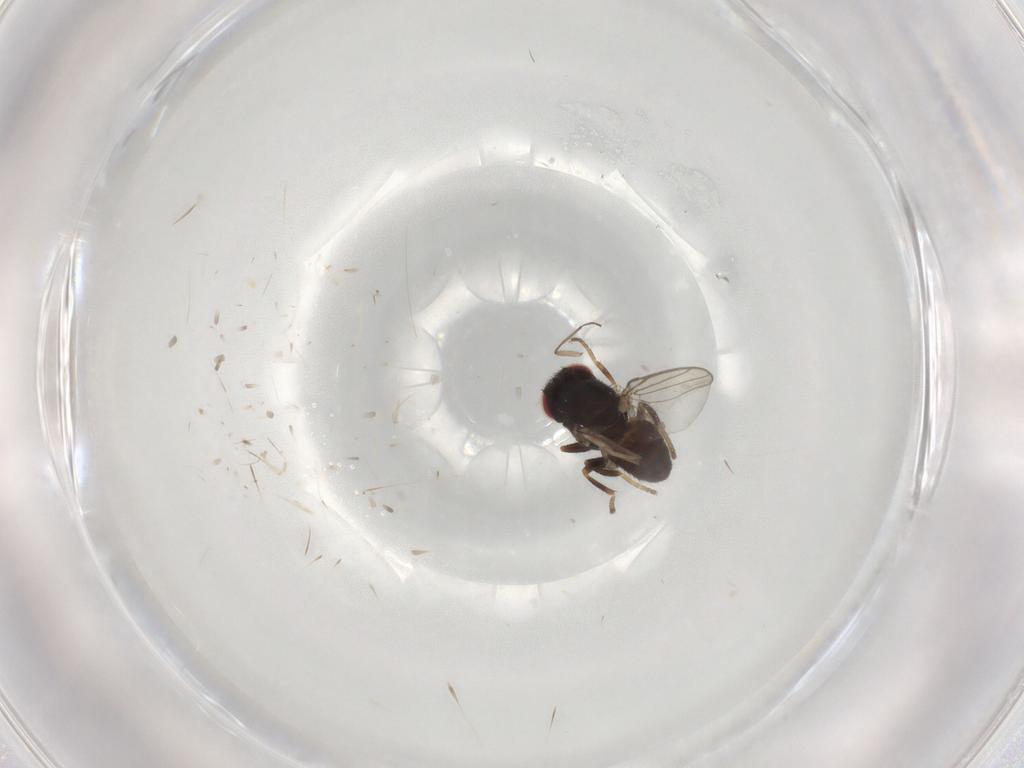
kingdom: Animalia
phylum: Arthropoda
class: Insecta
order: Diptera
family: Chloropidae
